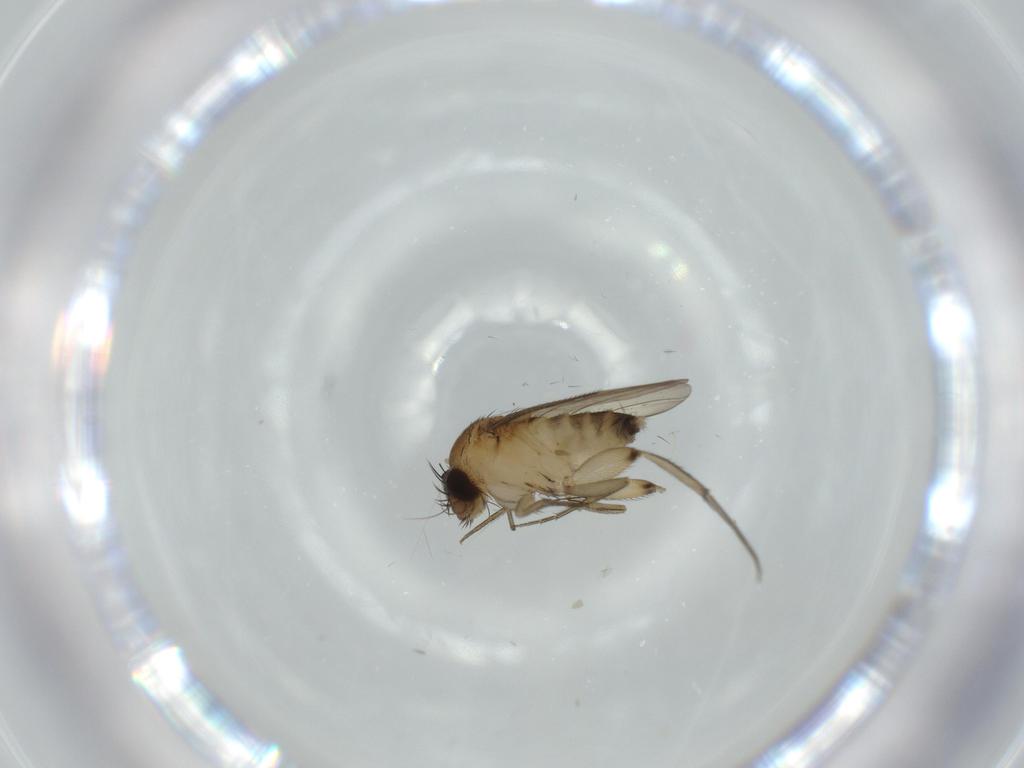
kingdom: Animalia
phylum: Arthropoda
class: Insecta
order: Diptera
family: Phoridae
